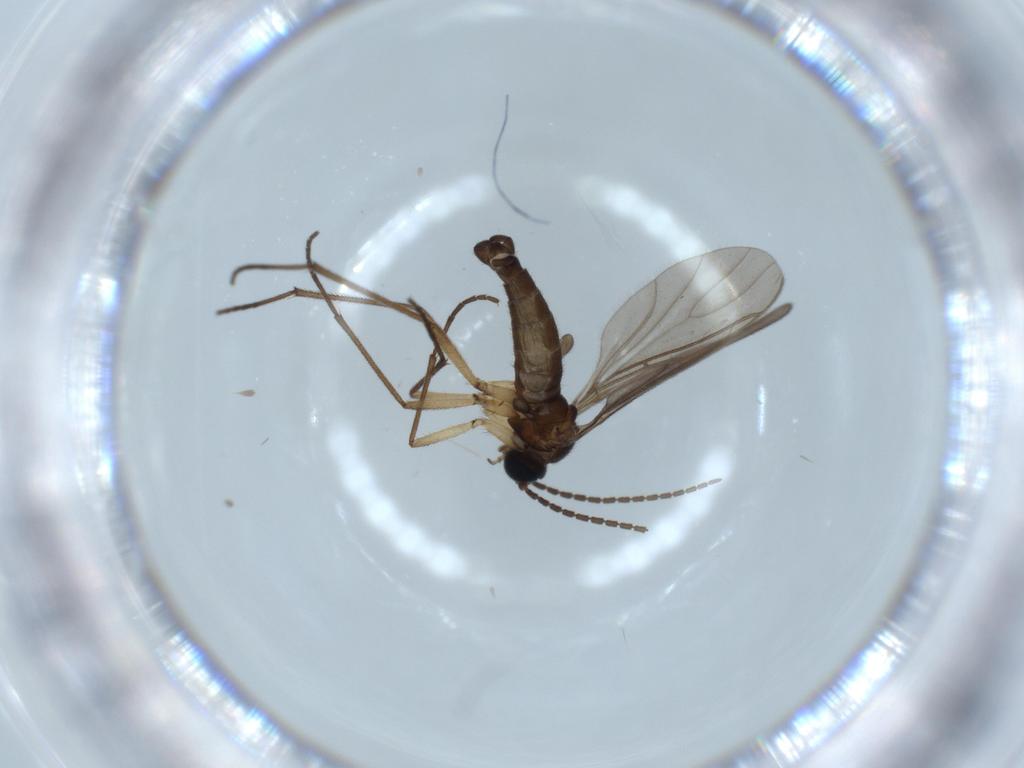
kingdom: Animalia
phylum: Arthropoda
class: Insecta
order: Diptera
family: Chironomidae
